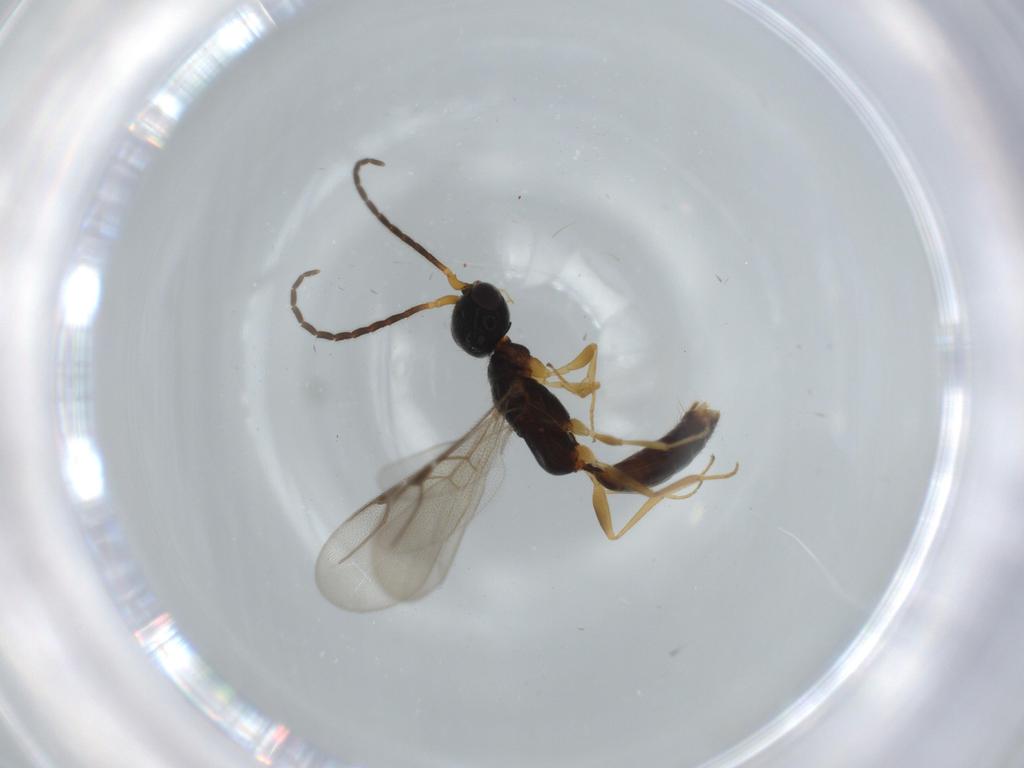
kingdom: Animalia
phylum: Arthropoda
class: Insecta
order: Hymenoptera
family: Bethylidae
